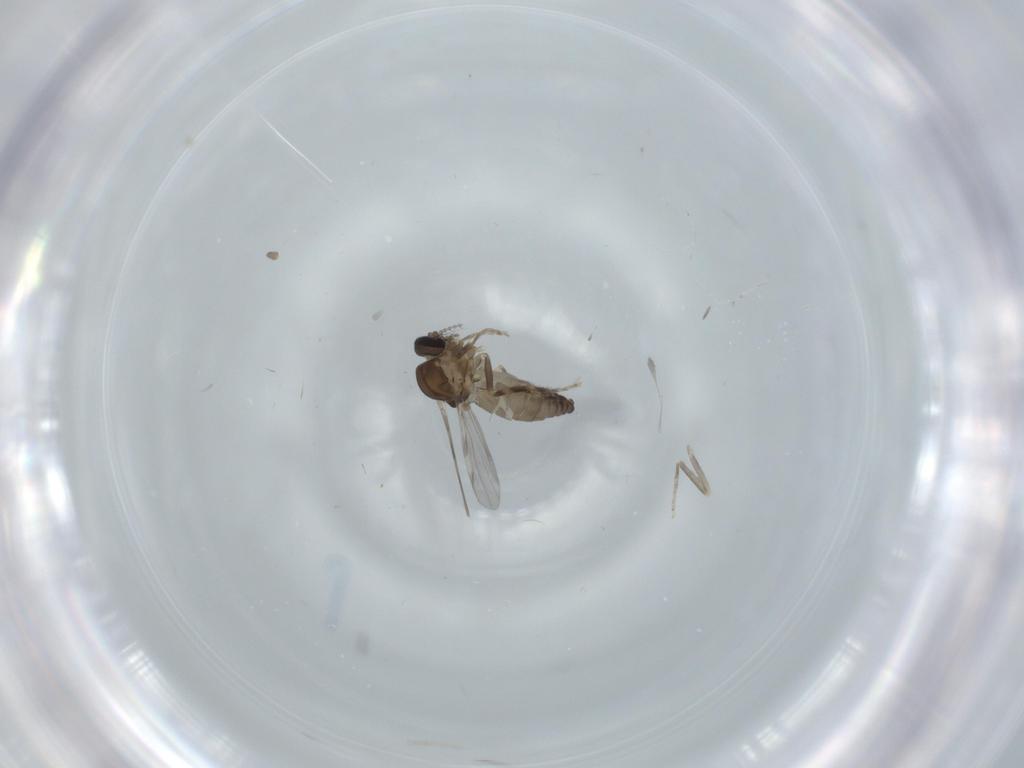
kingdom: Animalia
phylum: Arthropoda
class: Insecta
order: Diptera
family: Ceratopogonidae
